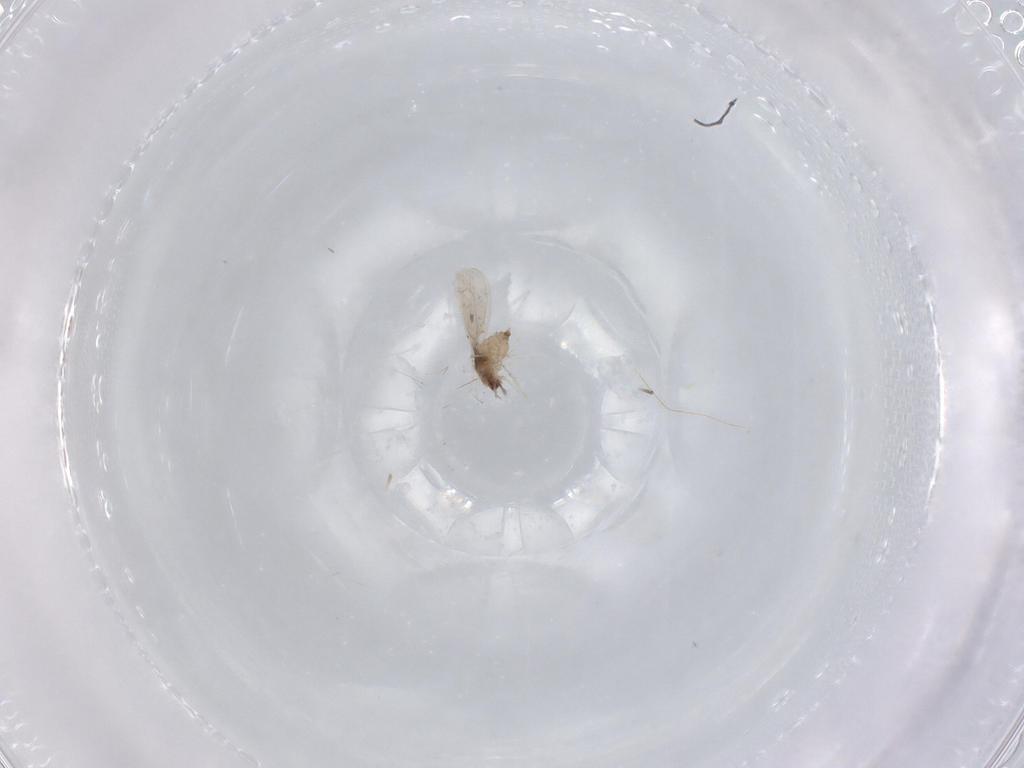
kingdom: Animalia
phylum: Arthropoda
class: Insecta
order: Diptera
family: Cecidomyiidae
